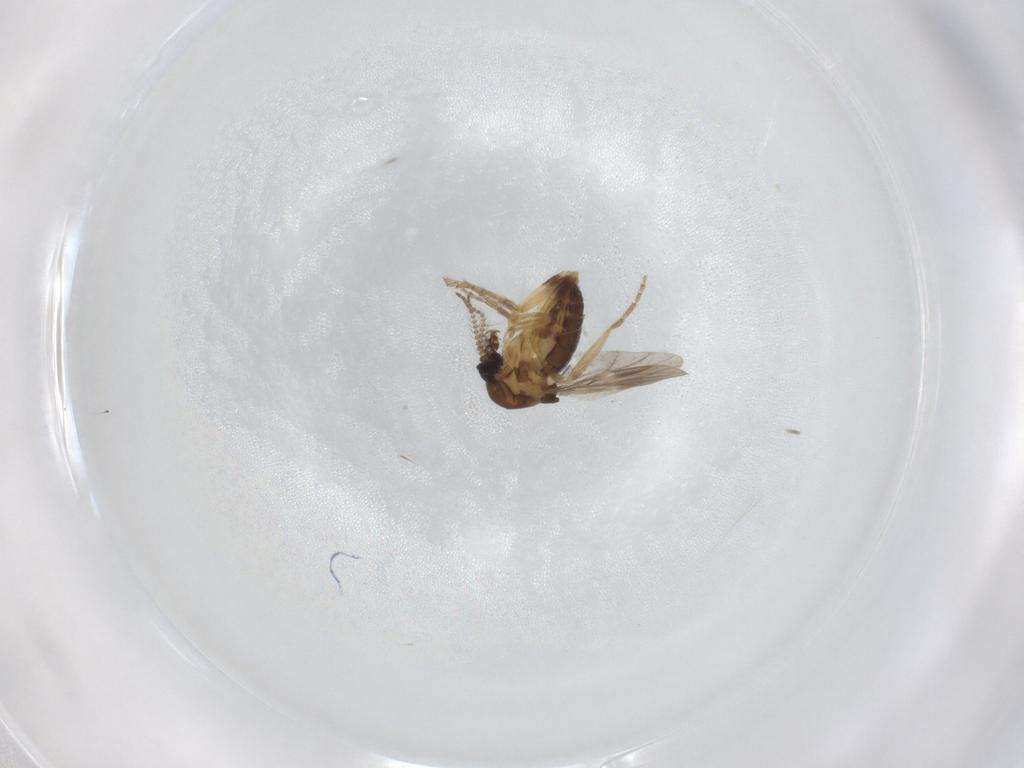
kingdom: Animalia
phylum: Arthropoda
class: Insecta
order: Diptera
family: Ceratopogonidae
